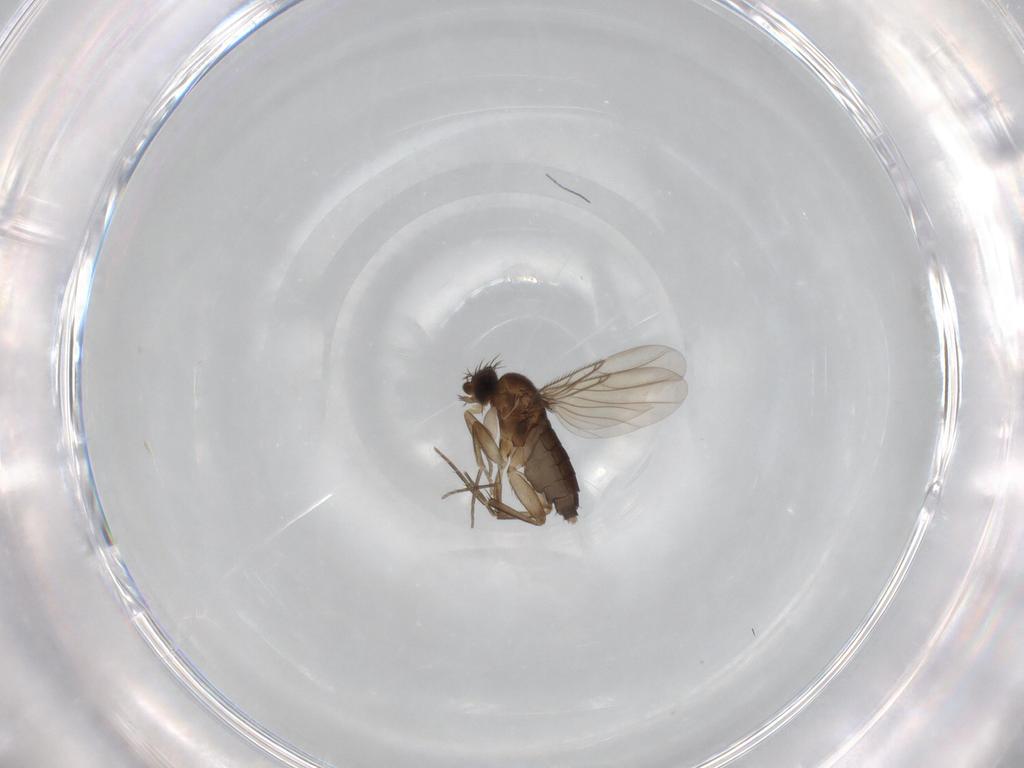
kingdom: Animalia
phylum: Arthropoda
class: Insecta
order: Diptera
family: Phoridae
